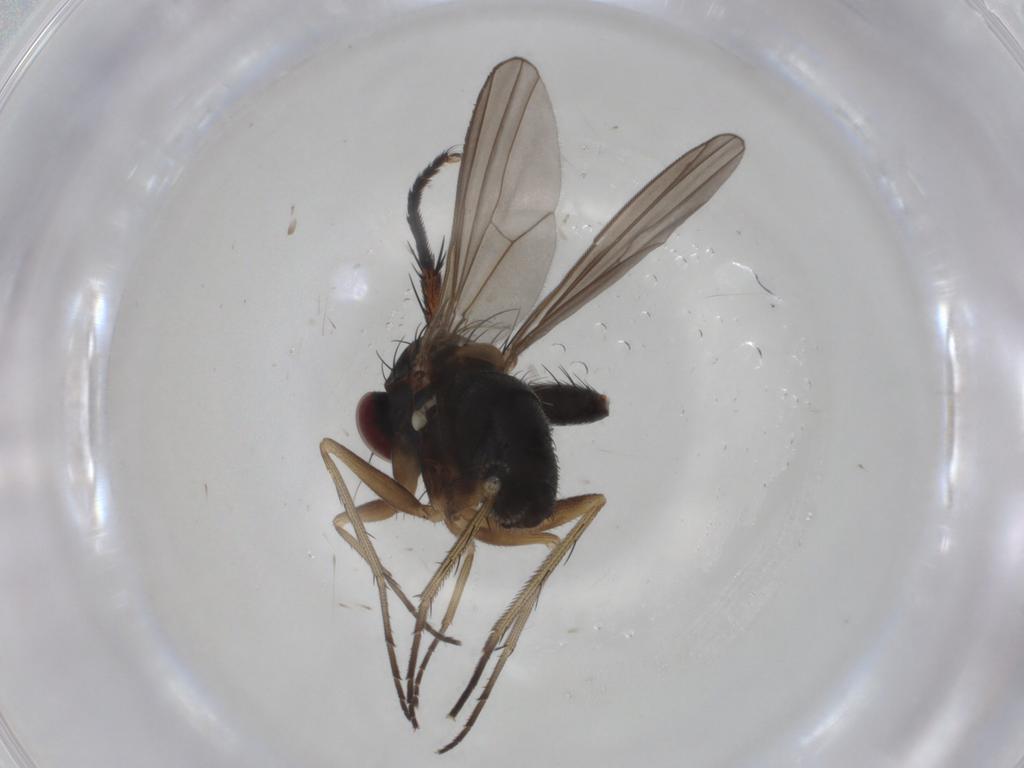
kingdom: Animalia
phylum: Arthropoda
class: Insecta
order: Diptera
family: Dolichopodidae
